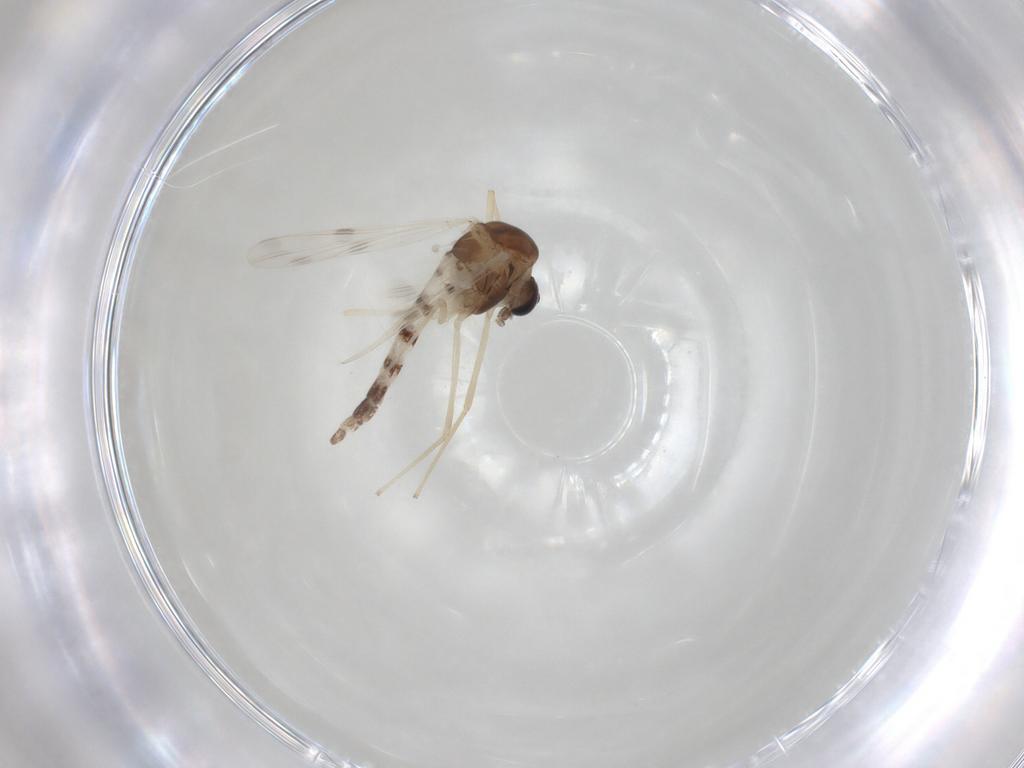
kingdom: Animalia
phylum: Arthropoda
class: Insecta
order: Diptera
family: Chironomidae
